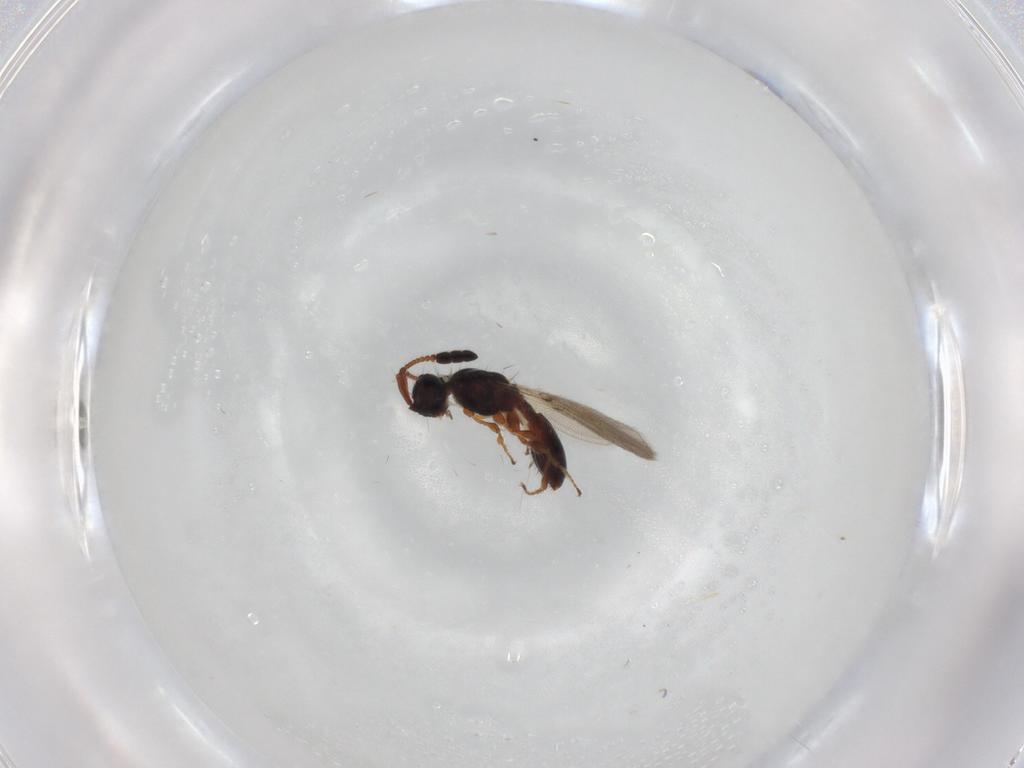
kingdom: Animalia
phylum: Arthropoda
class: Insecta
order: Hymenoptera
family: Diapriidae
